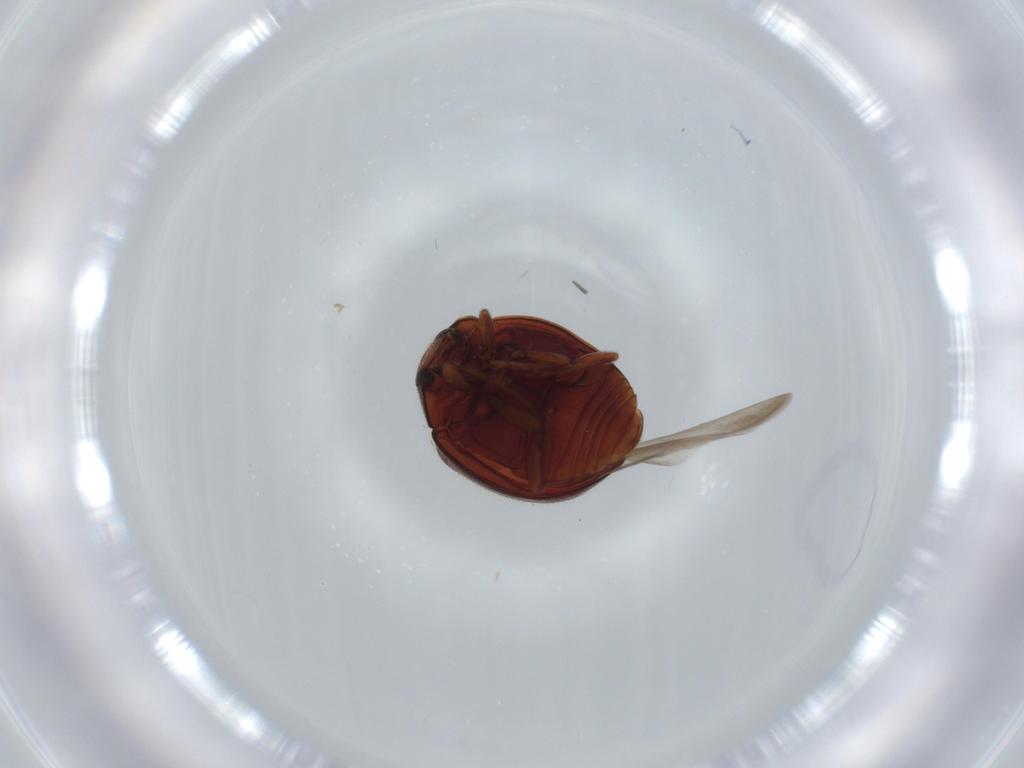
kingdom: Animalia
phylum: Arthropoda
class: Insecta
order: Coleoptera
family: Coccinellidae
